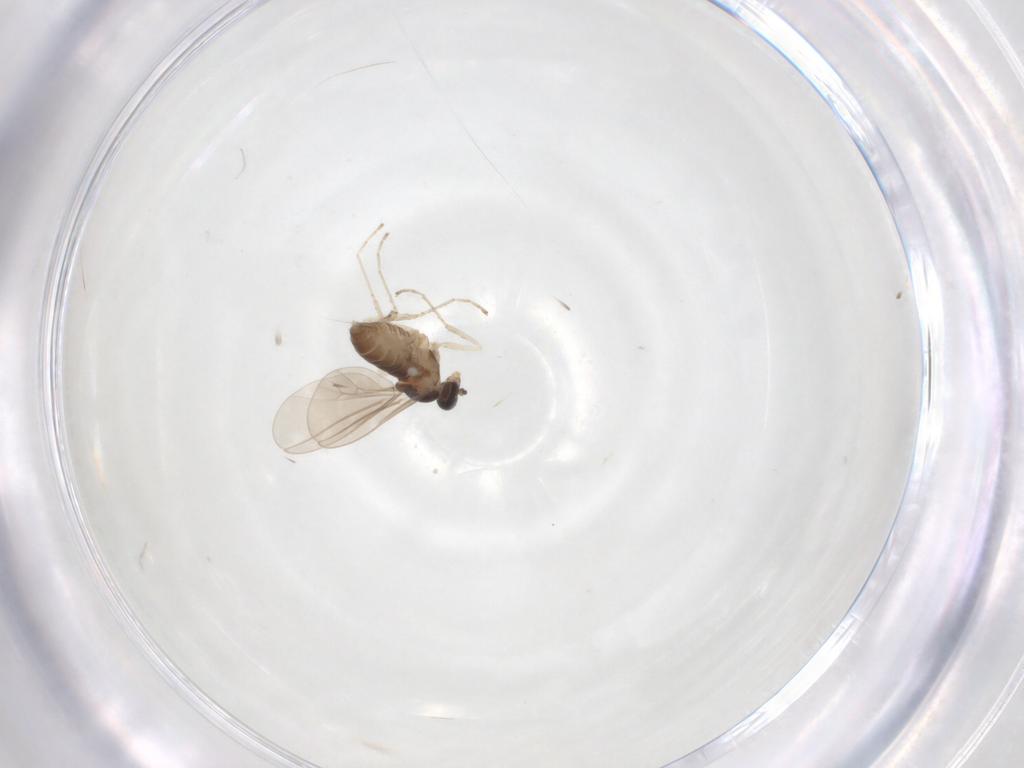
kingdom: Animalia
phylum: Arthropoda
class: Insecta
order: Diptera
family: Cecidomyiidae
